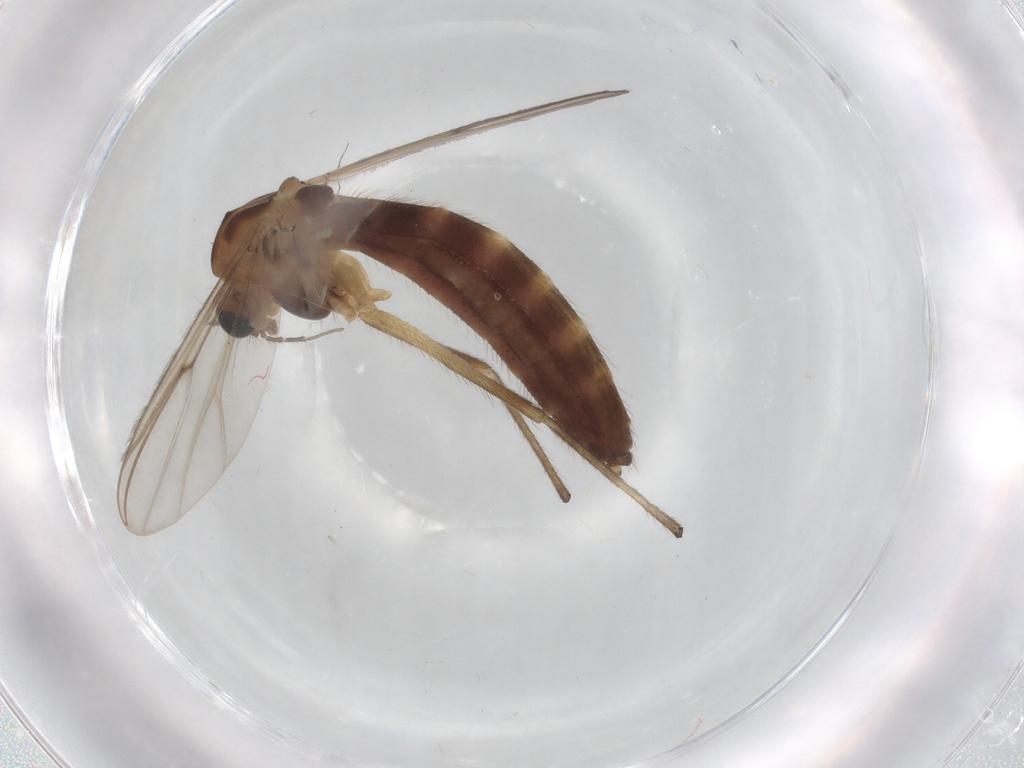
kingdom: Animalia
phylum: Arthropoda
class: Insecta
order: Diptera
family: Chironomidae
